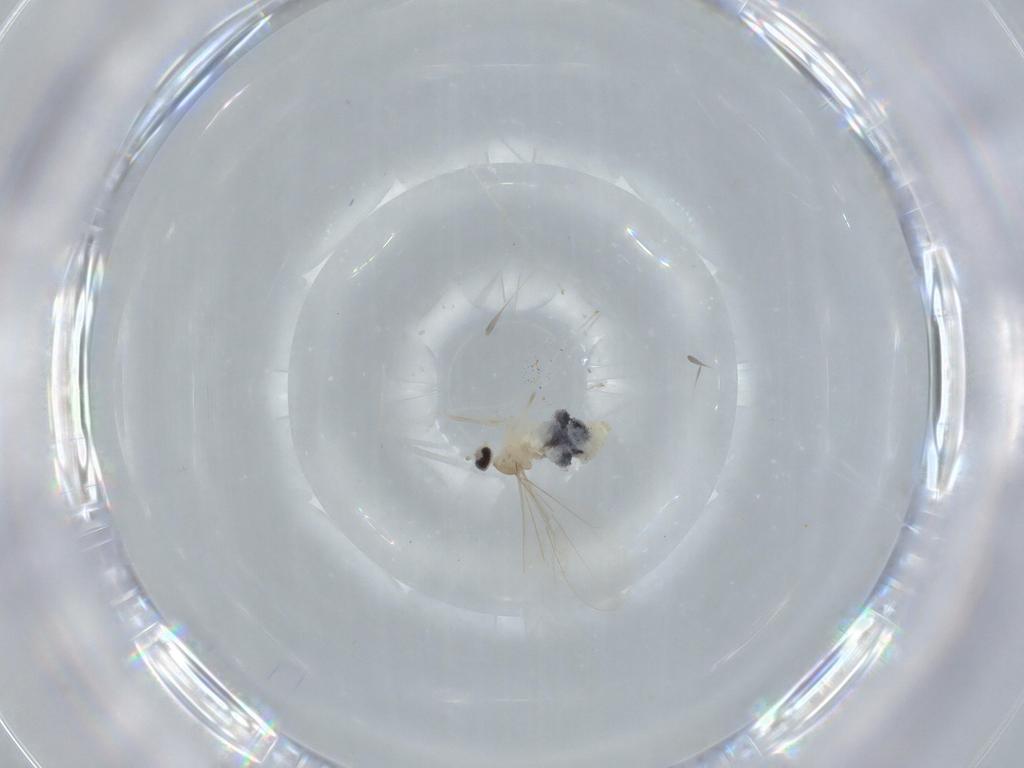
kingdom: Animalia
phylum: Arthropoda
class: Insecta
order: Diptera
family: Cecidomyiidae
